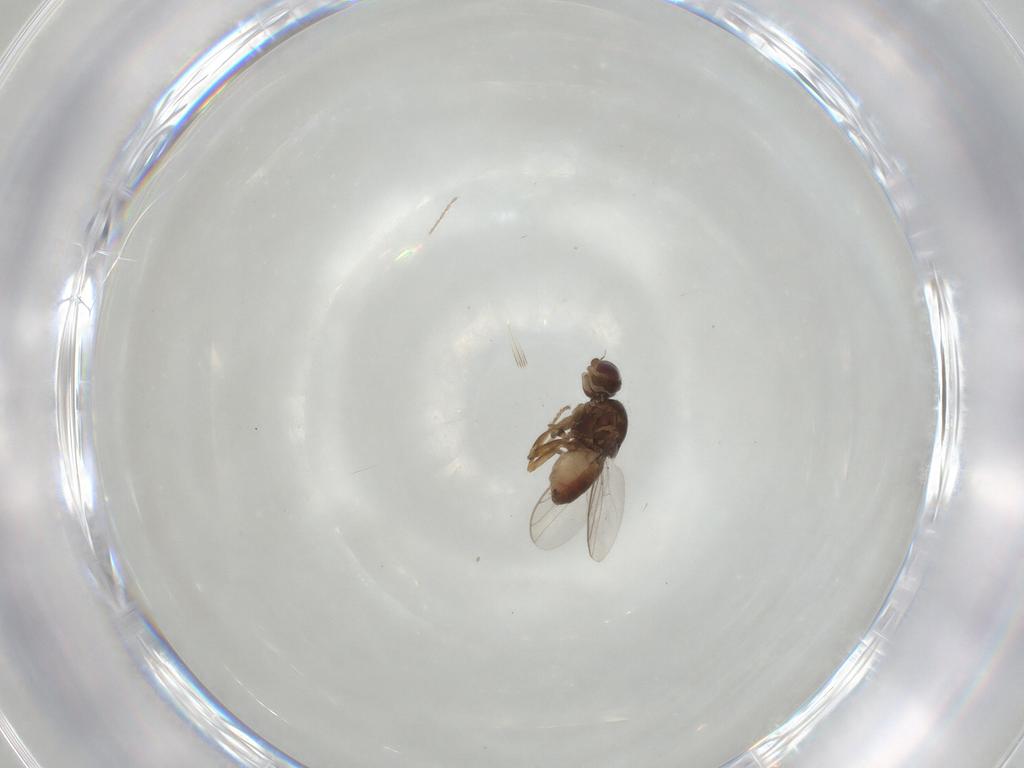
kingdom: Animalia
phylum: Arthropoda
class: Insecta
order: Diptera
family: Chloropidae
